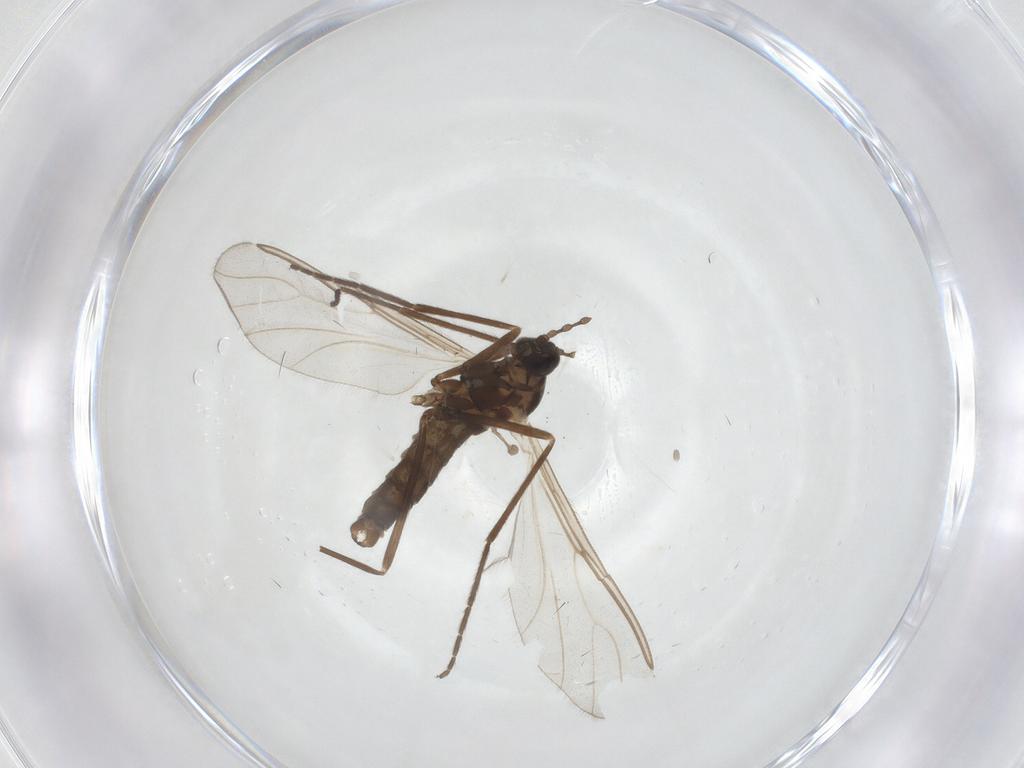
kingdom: Animalia
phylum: Arthropoda
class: Insecta
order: Diptera
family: Cecidomyiidae
